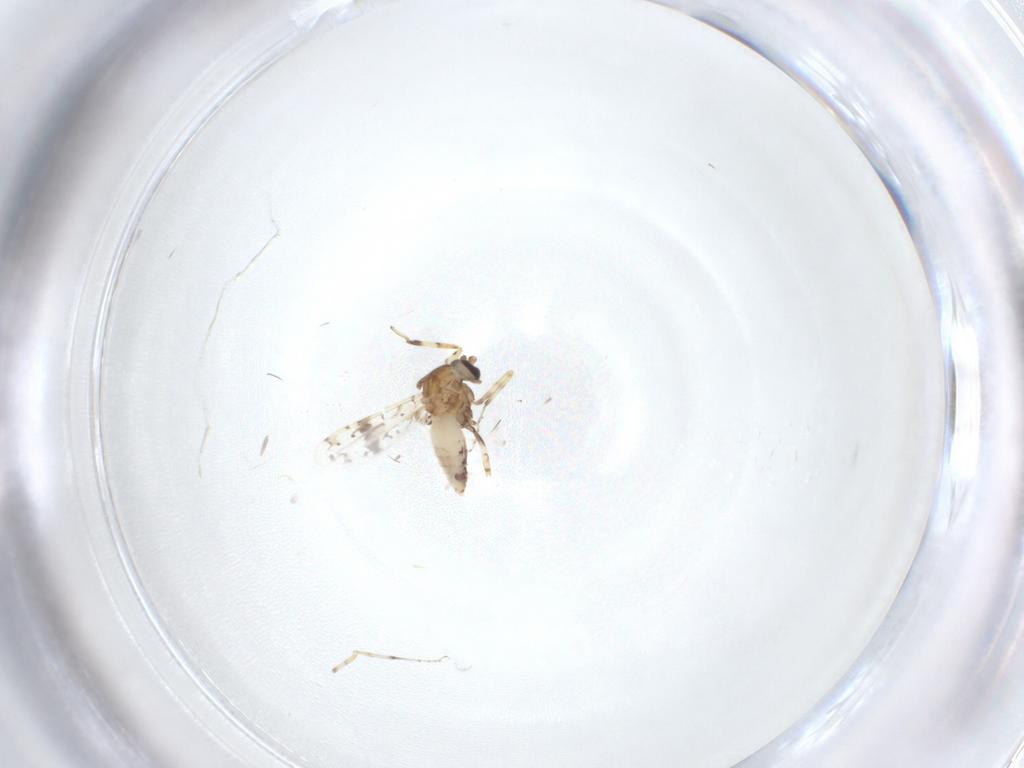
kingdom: Animalia
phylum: Arthropoda
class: Insecta
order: Diptera
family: Ceratopogonidae
